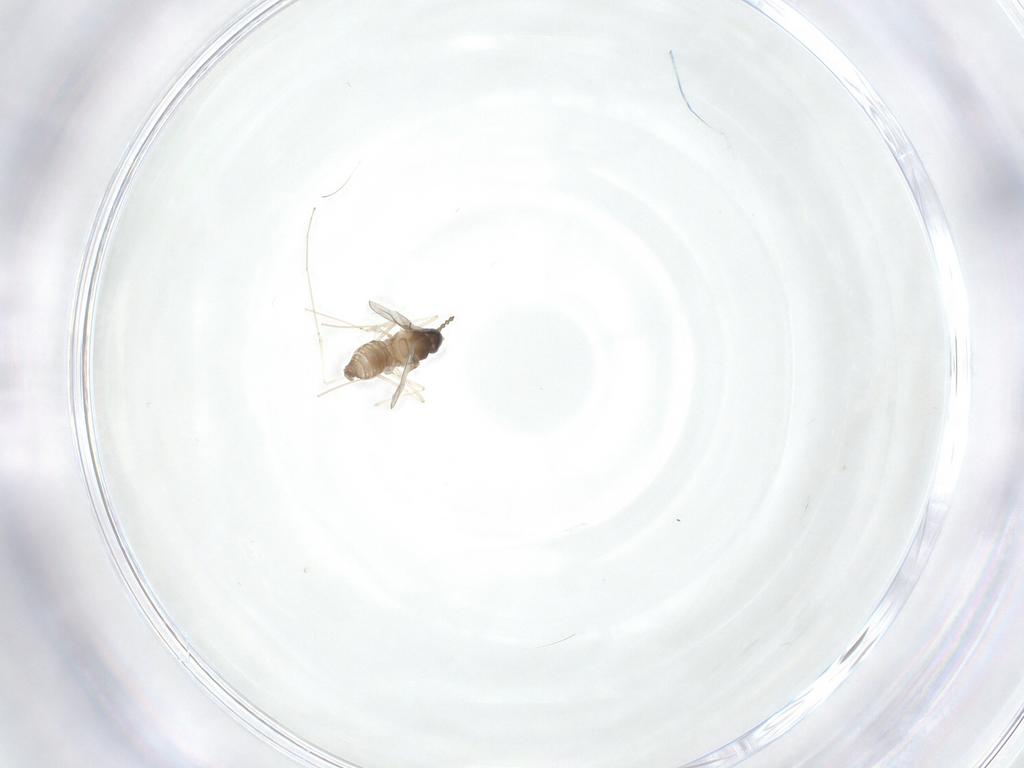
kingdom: Animalia
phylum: Arthropoda
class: Insecta
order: Diptera
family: Cecidomyiidae
